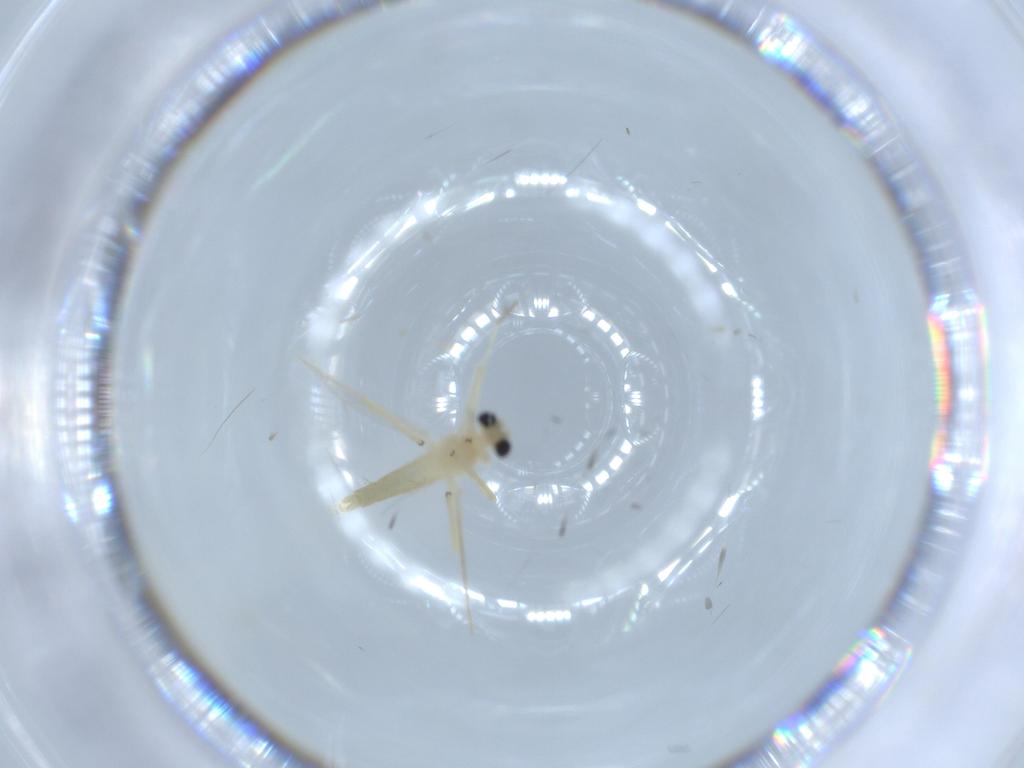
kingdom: Animalia
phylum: Arthropoda
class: Insecta
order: Diptera
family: Chironomidae
